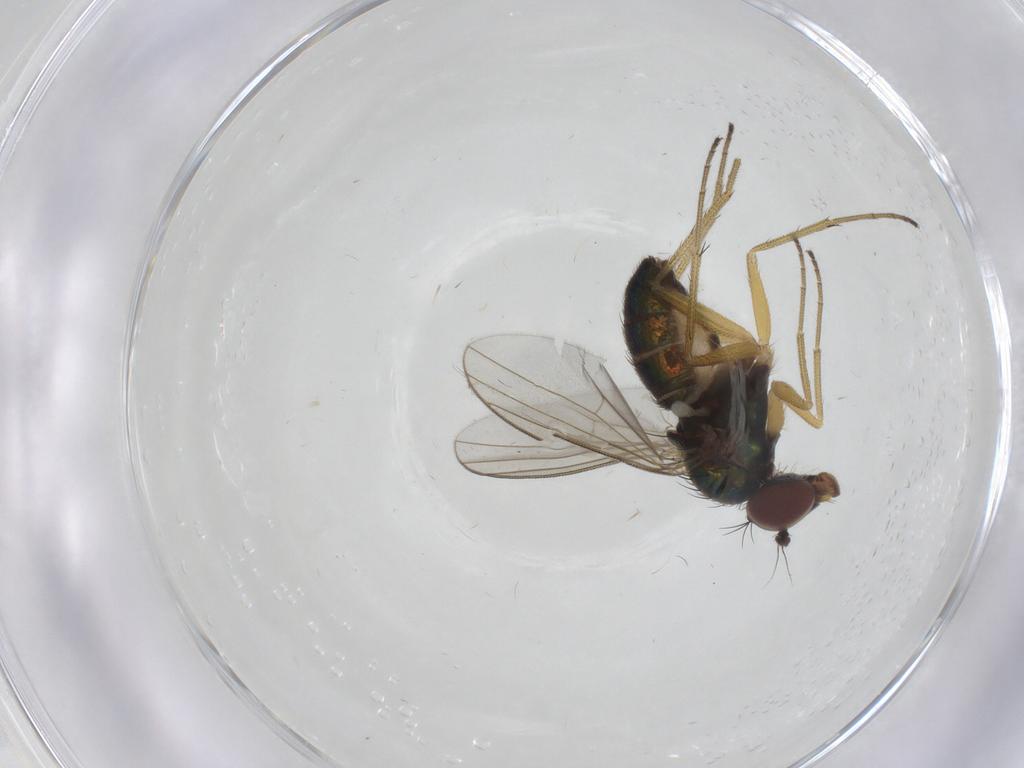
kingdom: Animalia
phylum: Arthropoda
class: Insecta
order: Diptera
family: Dolichopodidae
